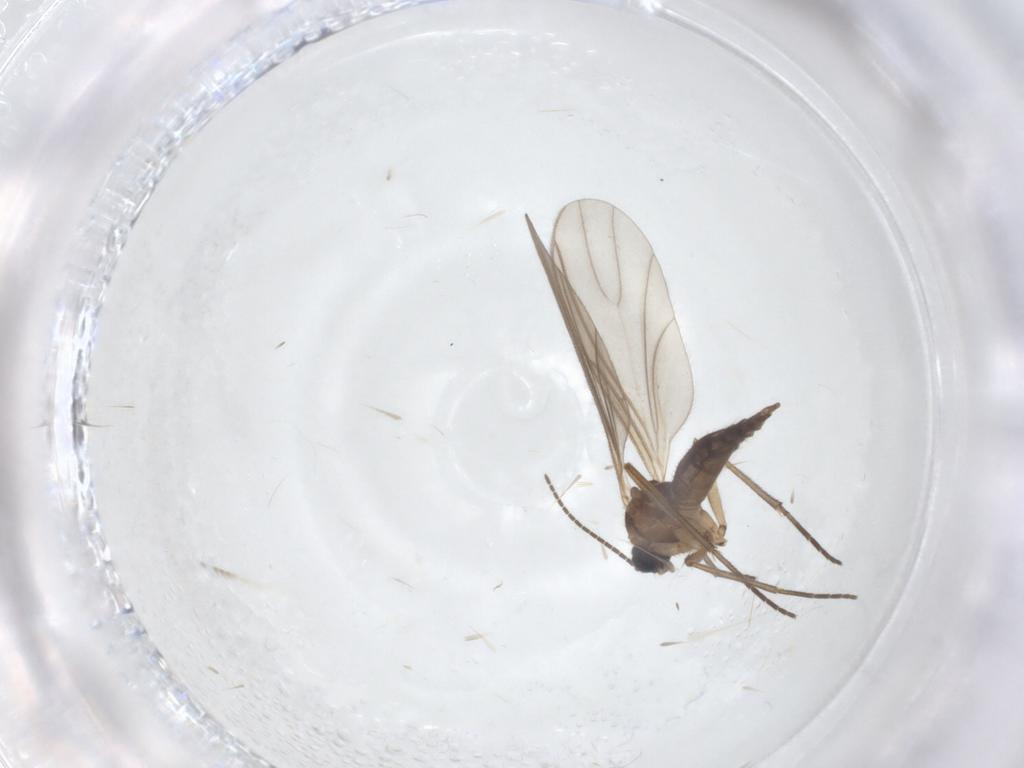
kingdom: Animalia
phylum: Arthropoda
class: Insecta
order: Diptera
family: Sciaridae
